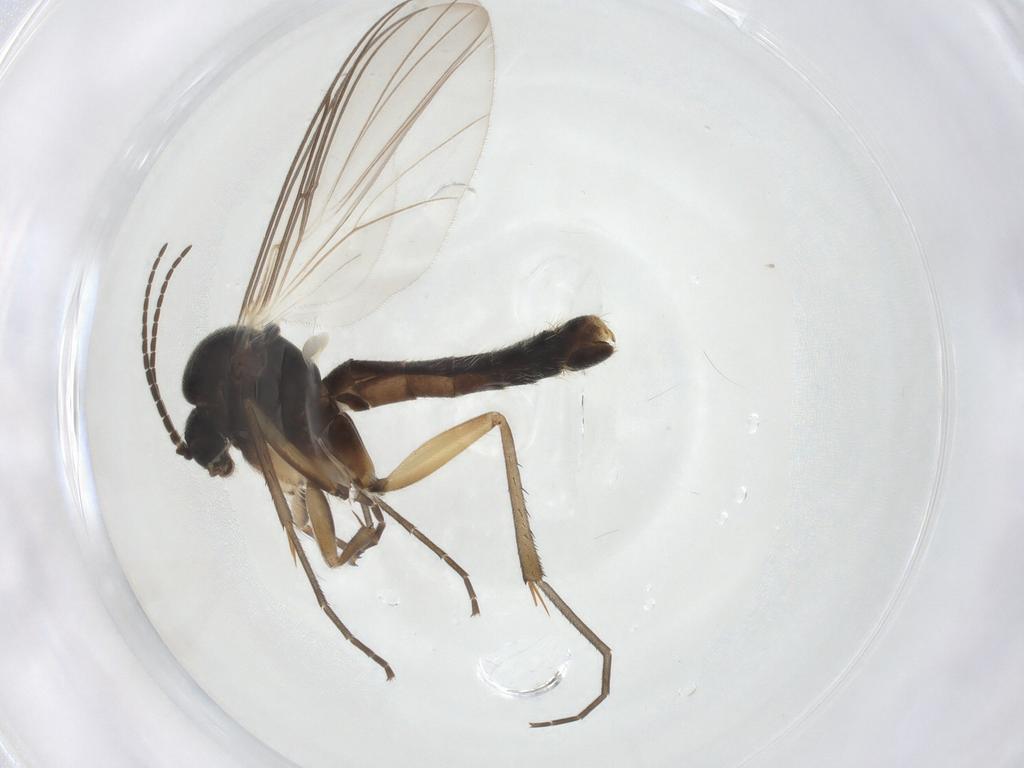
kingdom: Animalia
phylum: Arthropoda
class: Insecta
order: Diptera
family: Mycetophilidae
